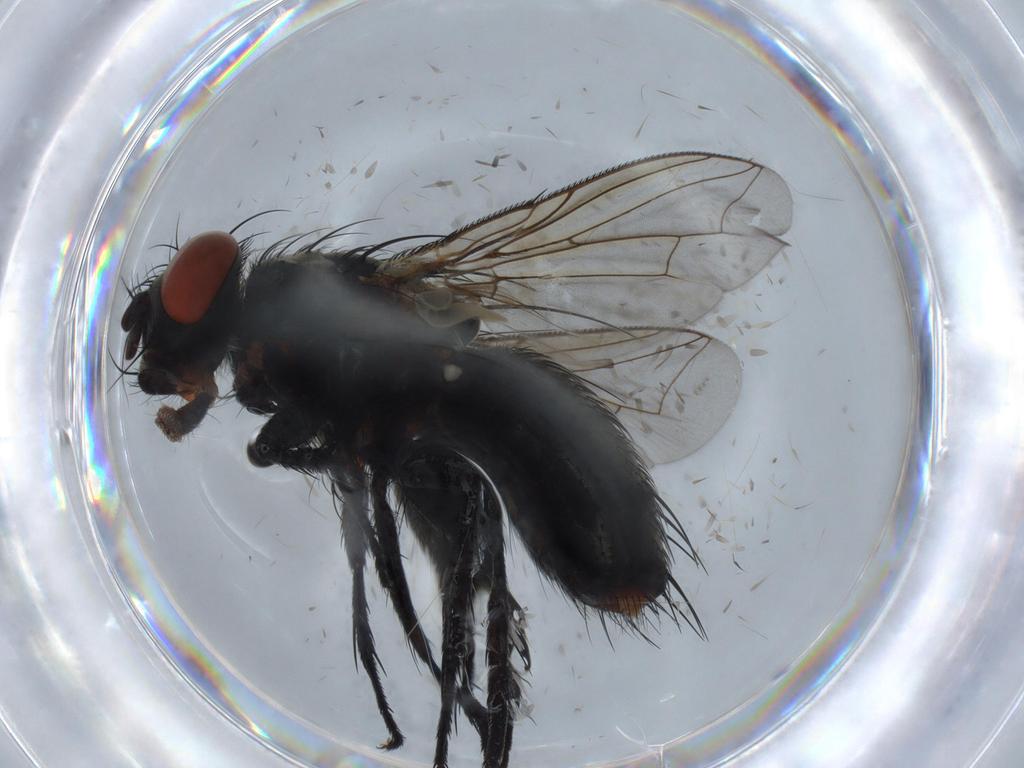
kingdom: Animalia
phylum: Arthropoda
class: Insecta
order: Diptera
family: Sarcophagidae
